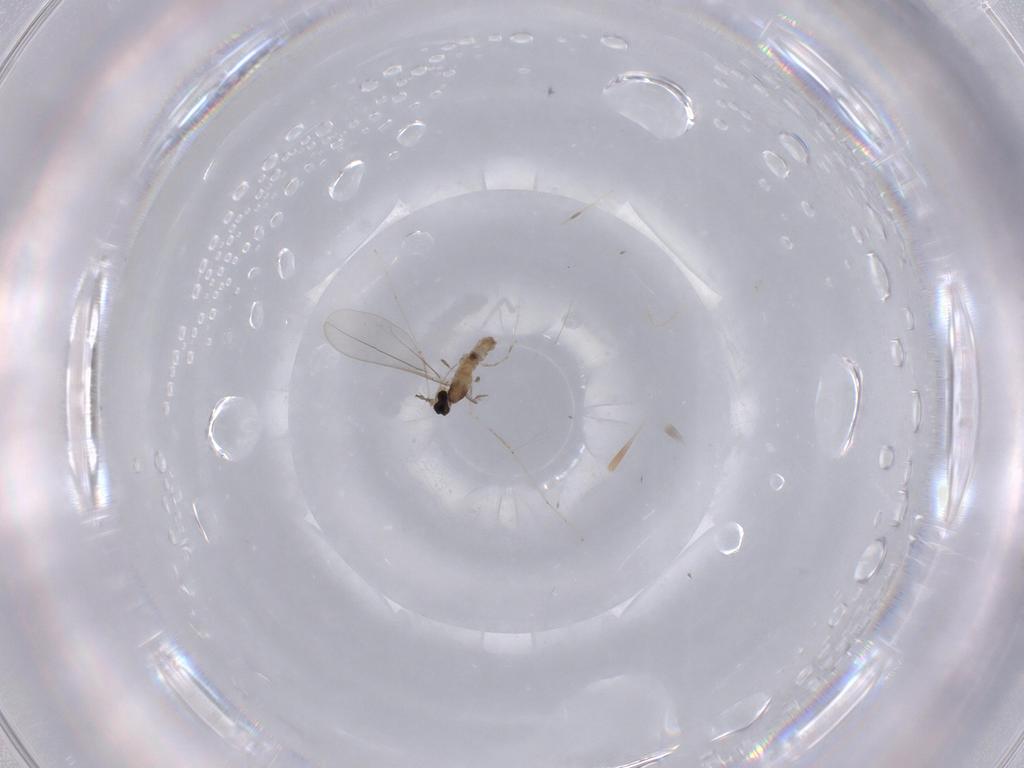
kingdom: Animalia
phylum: Arthropoda
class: Insecta
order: Diptera
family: Cecidomyiidae
